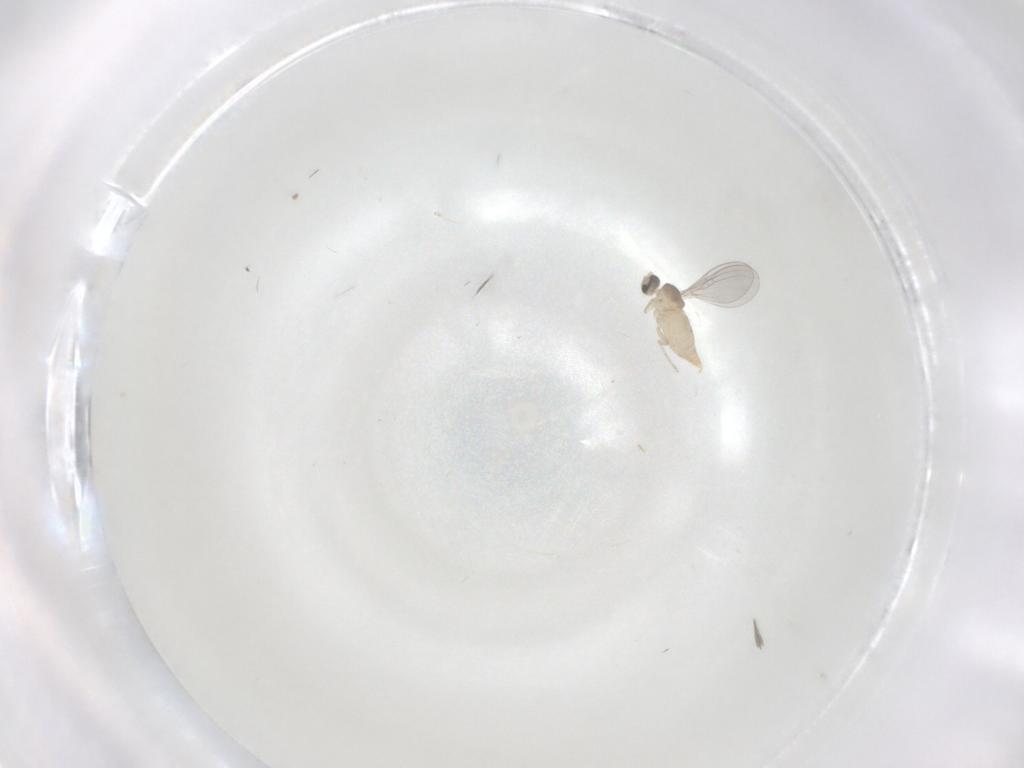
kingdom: Animalia
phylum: Arthropoda
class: Insecta
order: Diptera
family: Cecidomyiidae
